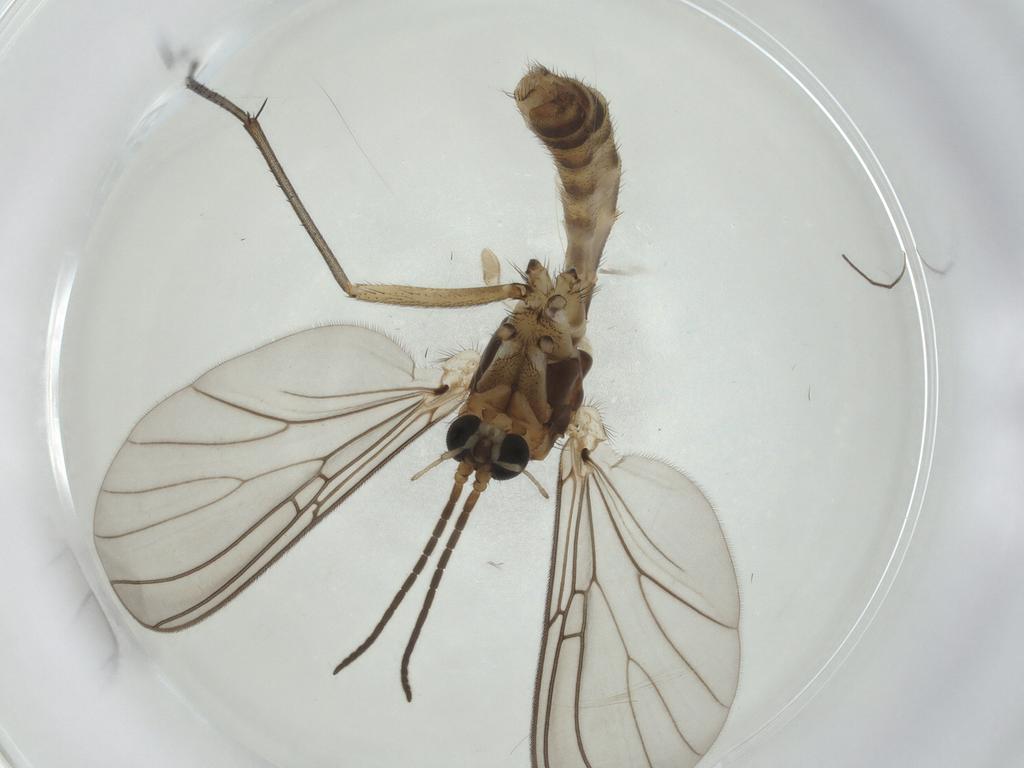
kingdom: Animalia
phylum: Arthropoda
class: Insecta
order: Diptera
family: Mycetophilidae
